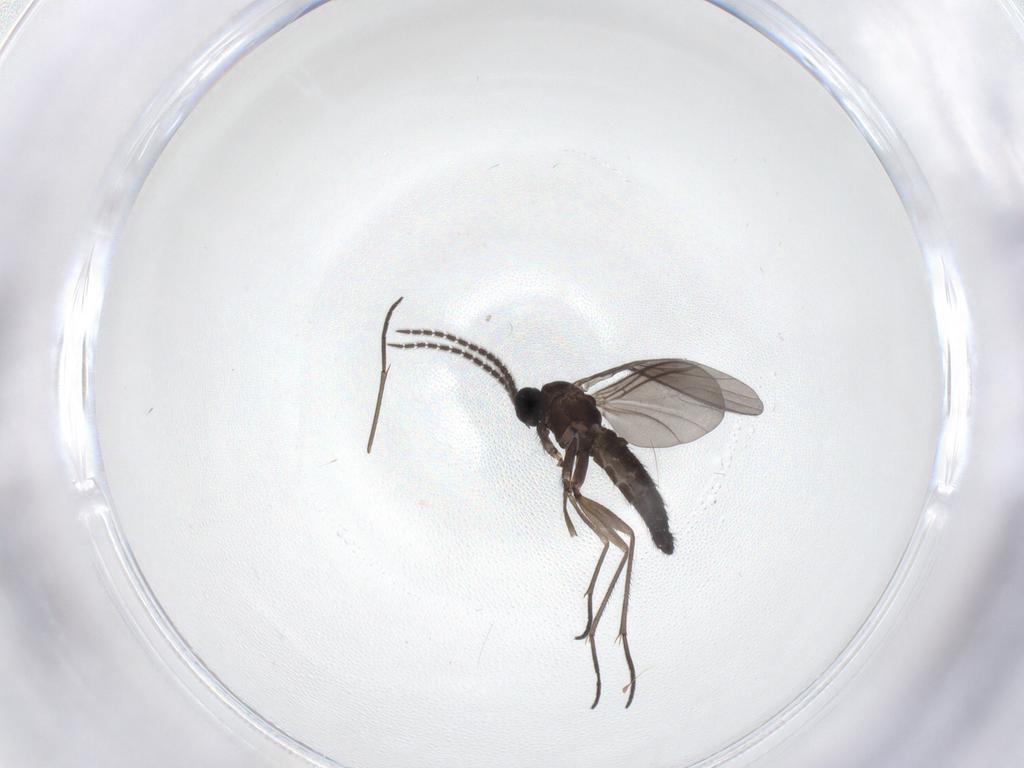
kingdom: Animalia
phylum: Arthropoda
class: Insecta
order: Diptera
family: Sciaridae
